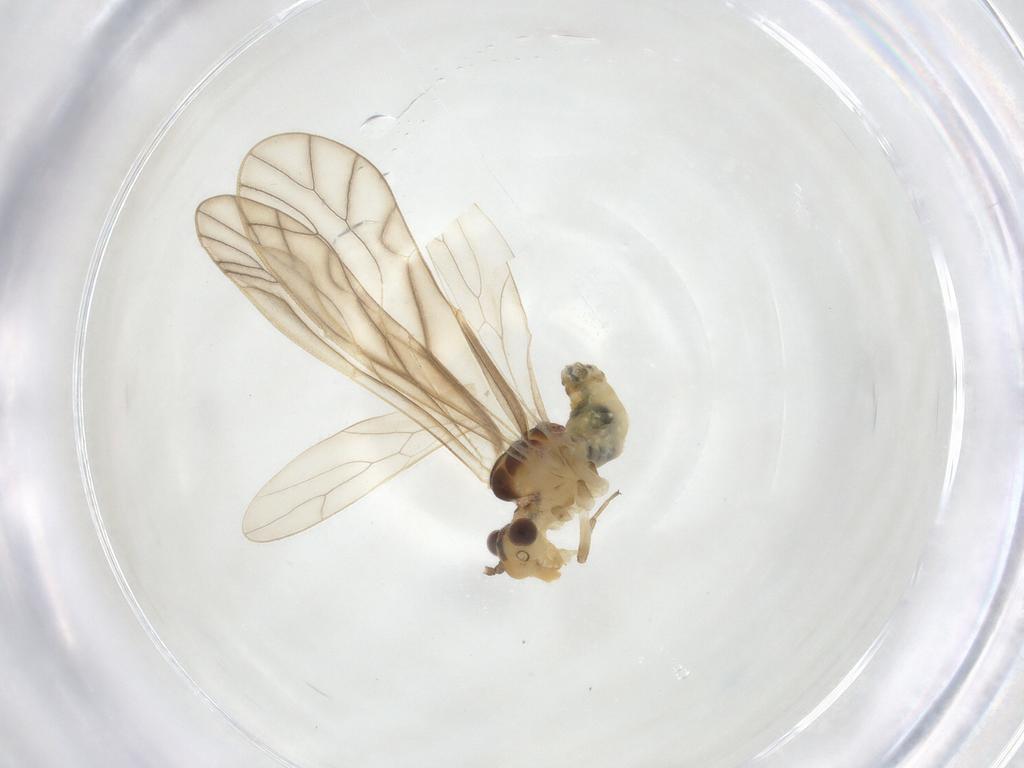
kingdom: Animalia
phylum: Arthropoda
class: Insecta
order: Psocodea
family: Caeciliusidae
